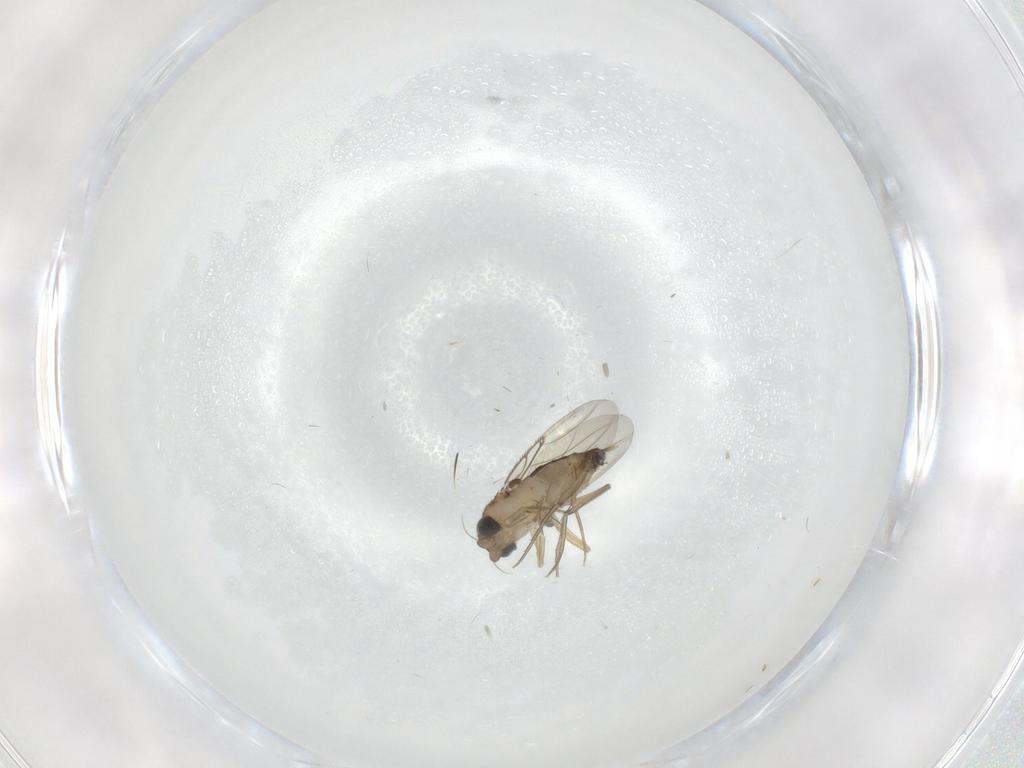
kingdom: Animalia
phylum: Arthropoda
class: Insecta
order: Diptera
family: Phoridae
